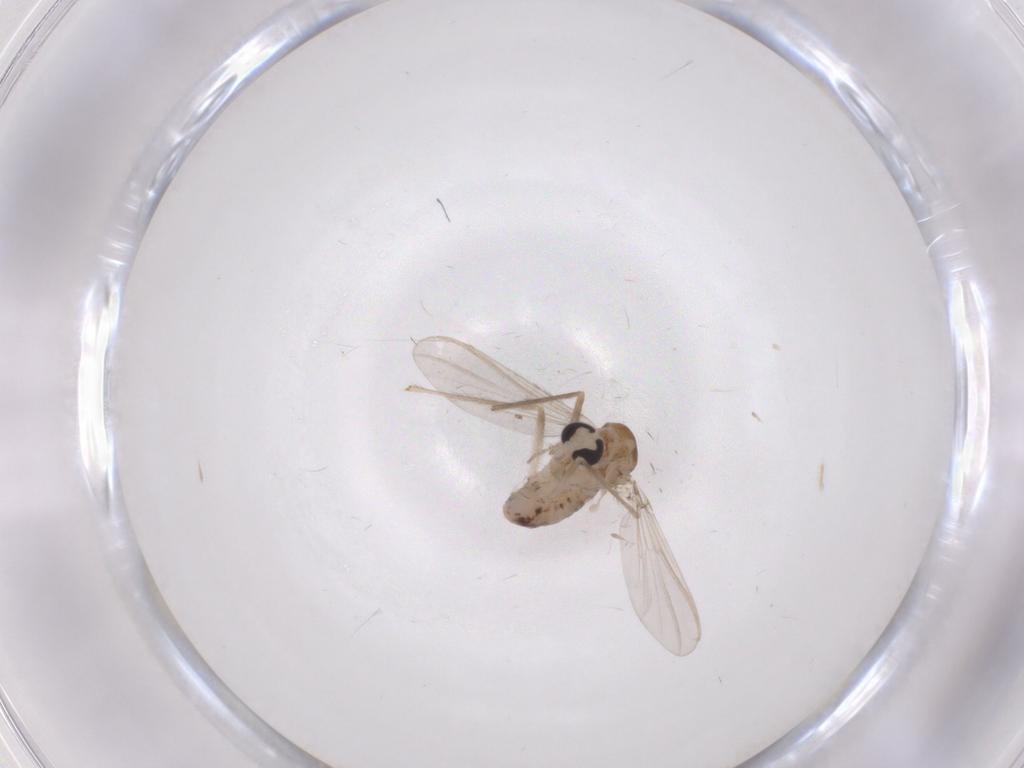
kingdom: Animalia
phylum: Arthropoda
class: Insecta
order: Diptera
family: Chironomidae
